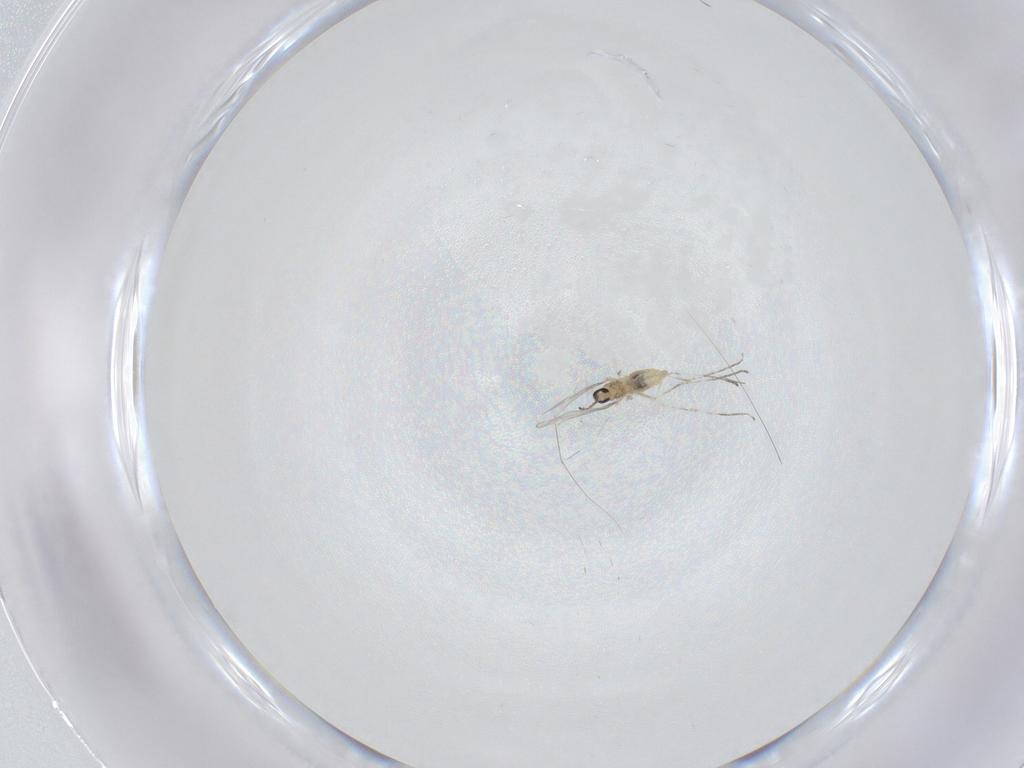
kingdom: Animalia
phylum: Arthropoda
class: Insecta
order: Diptera
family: Cecidomyiidae
